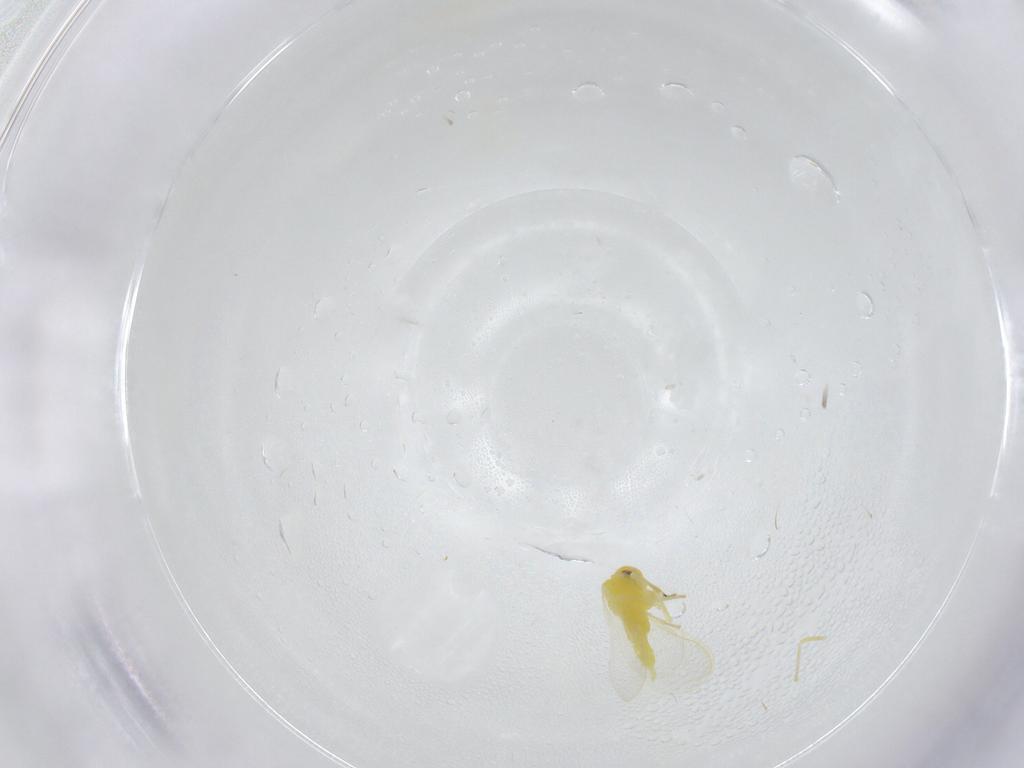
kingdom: Animalia
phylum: Arthropoda
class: Insecta
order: Hemiptera
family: Aleyrodidae
